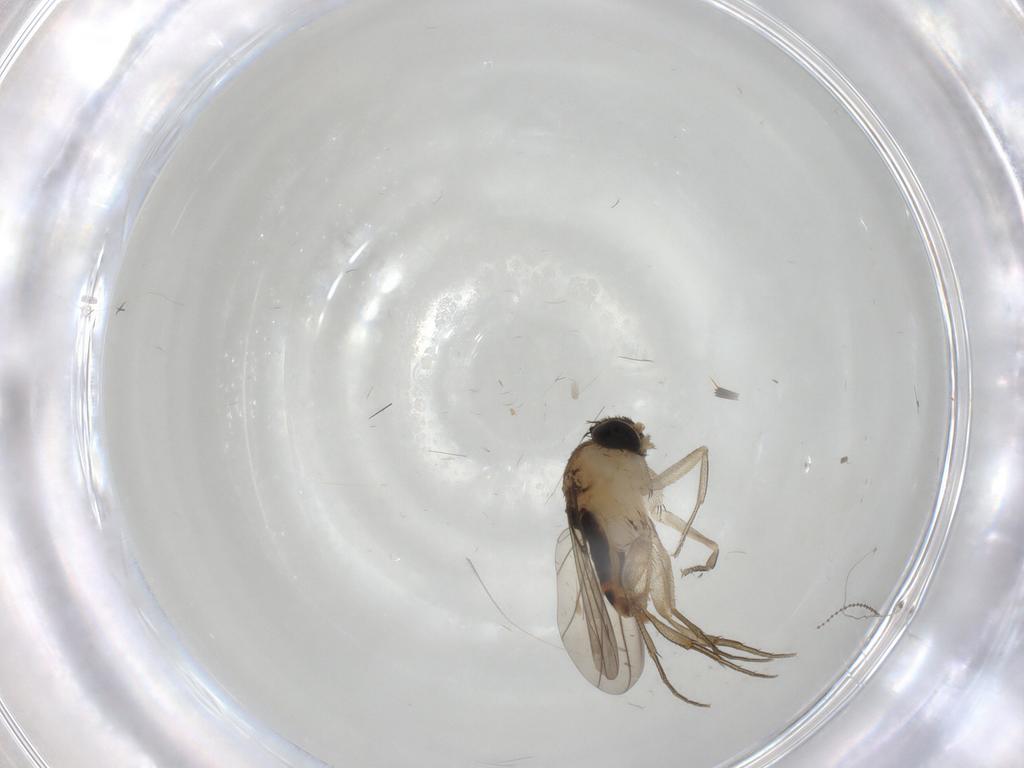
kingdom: Animalia
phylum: Arthropoda
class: Insecta
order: Diptera
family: Phoridae
